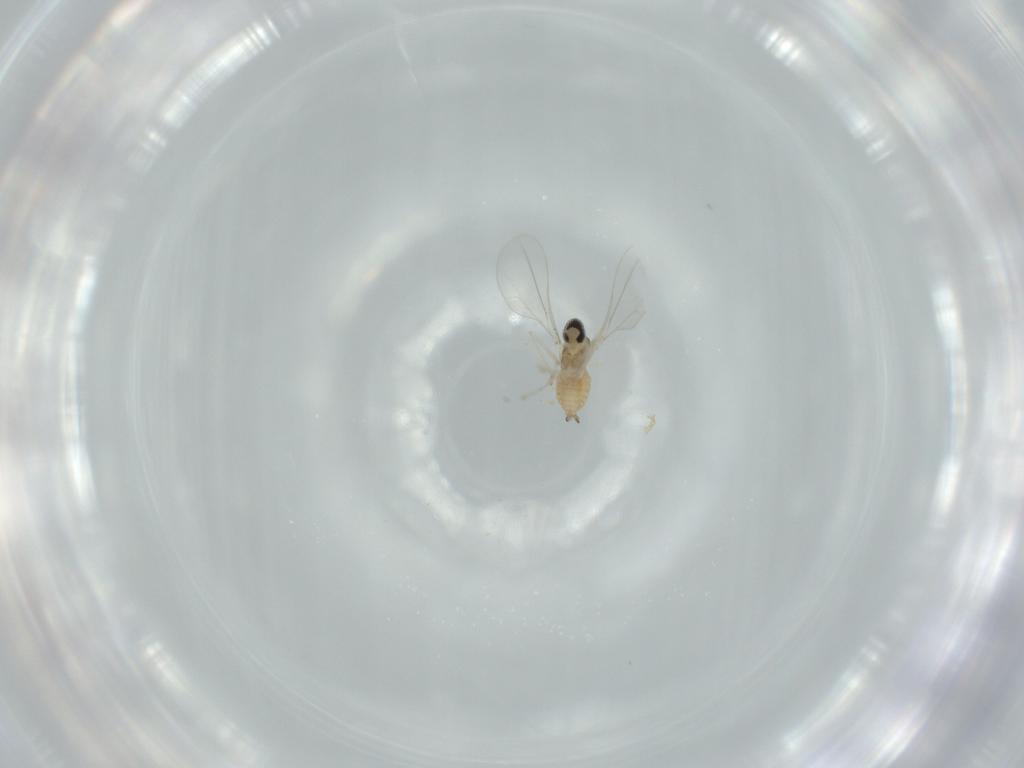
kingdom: Animalia
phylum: Arthropoda
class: Insecta
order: Diptera
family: Cecidomyiidae
